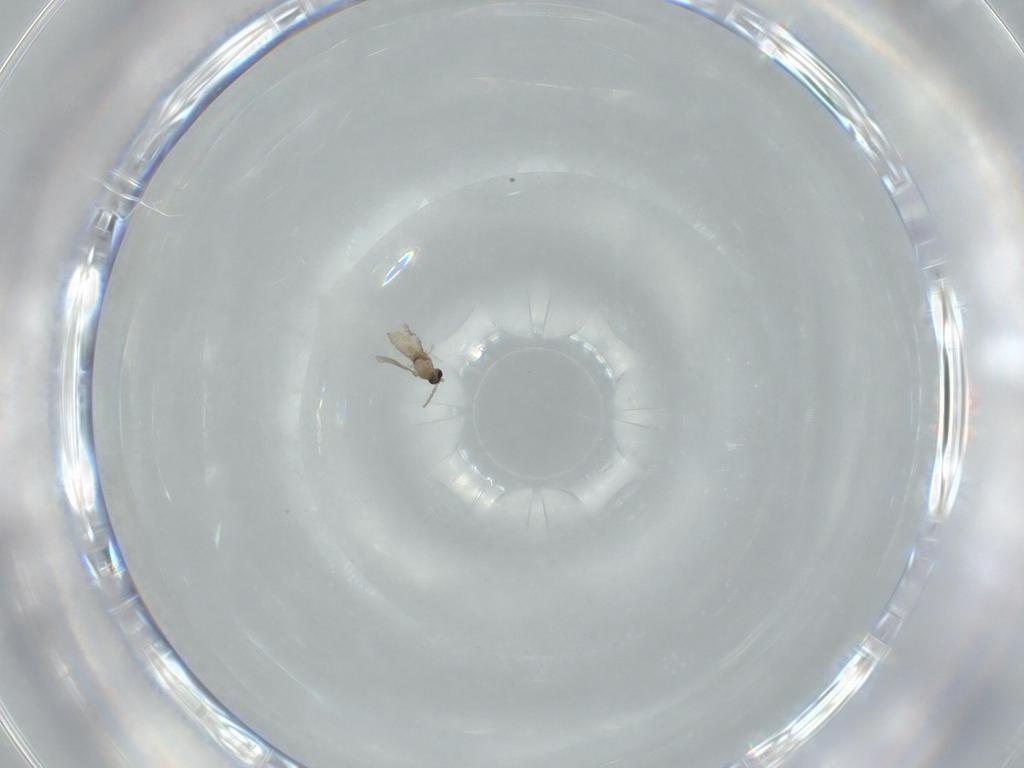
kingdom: Animalia
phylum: Arthropoda
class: Insecta
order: Diptera
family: Cecidomyiidae
